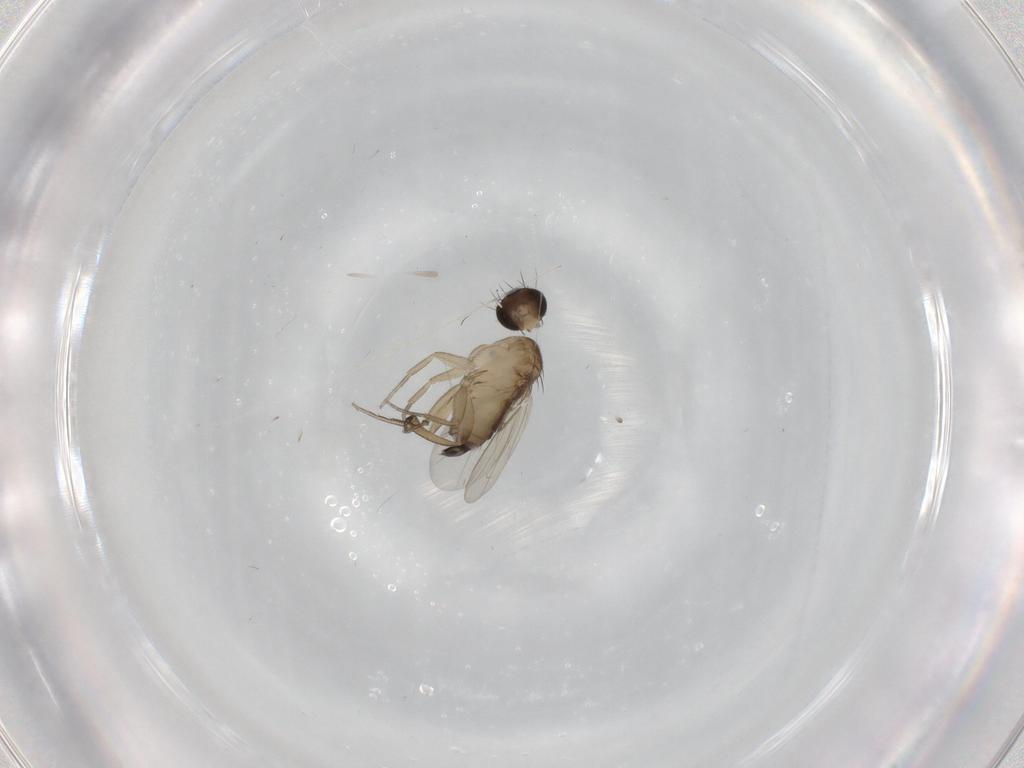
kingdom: Animalia
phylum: Arthropoda
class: Insecta
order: Diptera
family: Phoridae
